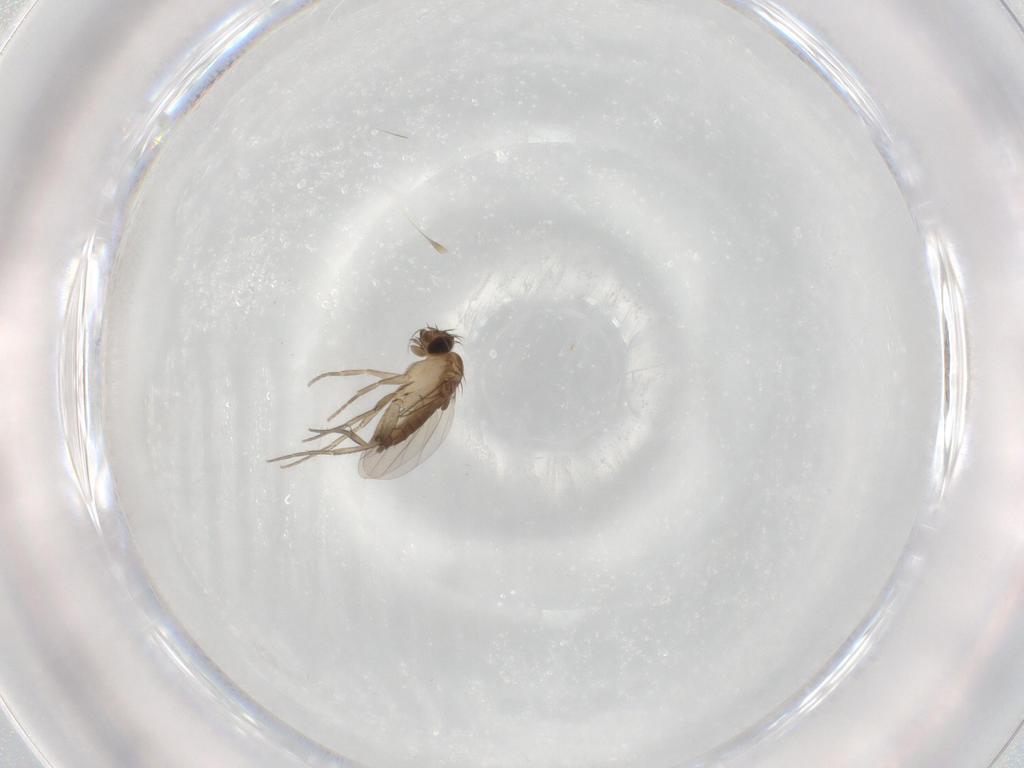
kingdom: Animalia
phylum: Arthropoda
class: Insecta
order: Diptera
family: Phoridae
